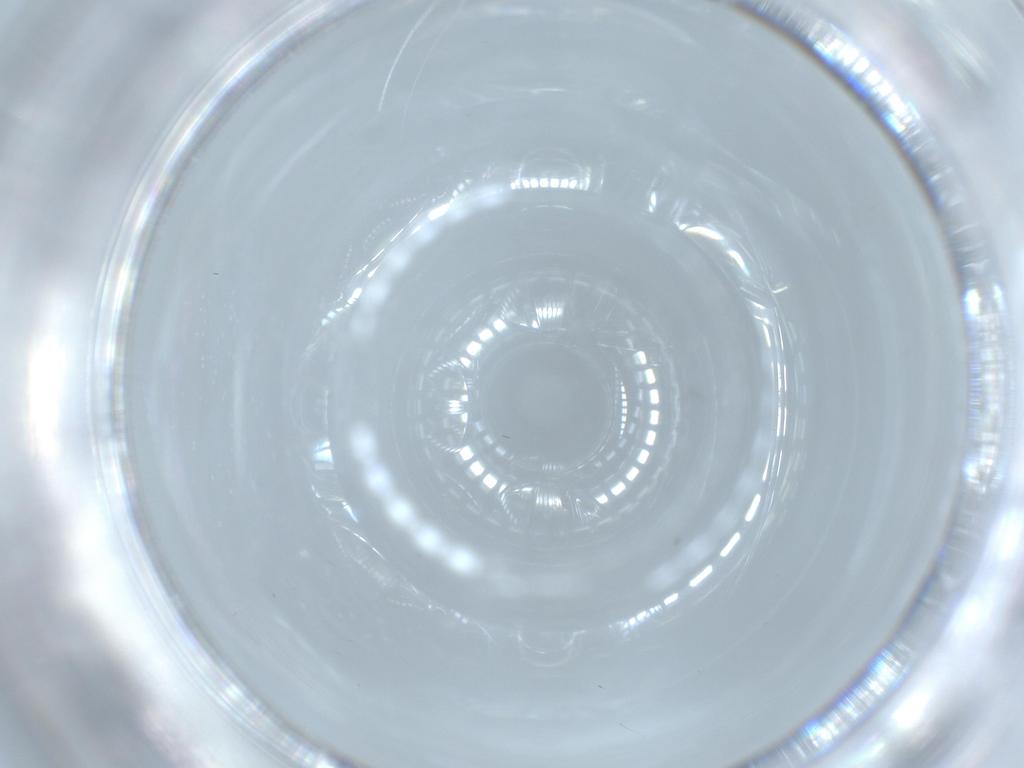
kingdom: Animalia
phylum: Arthropoda
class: Insecta
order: Diptera
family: Cecidomyiidae
